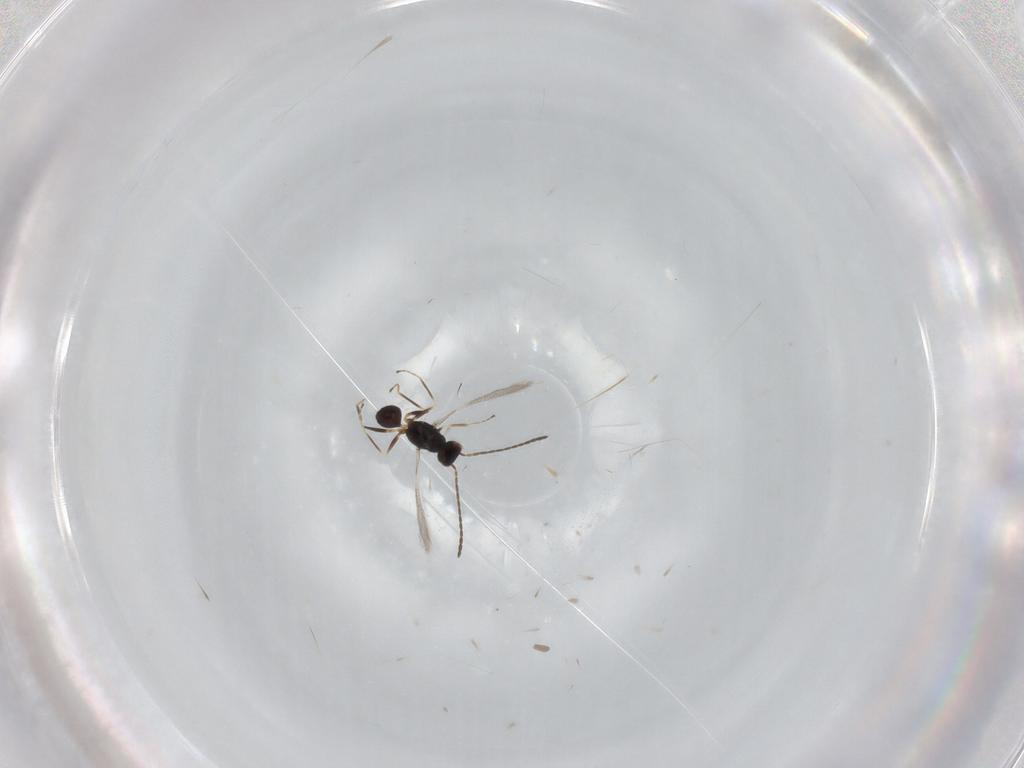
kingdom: Animalia
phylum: Arthropoda
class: Insecta
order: Hymenoptera
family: Mymaridae
